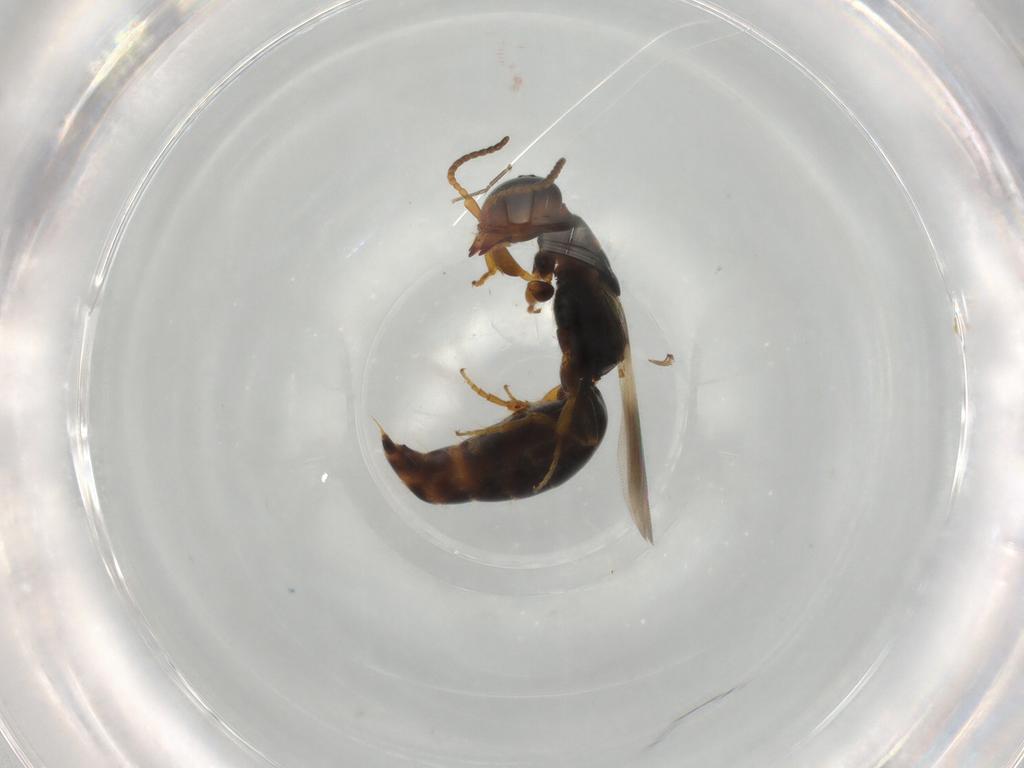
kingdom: Animalia
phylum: Arthropoda
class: Insecta
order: Hymenoptera
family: Bethylidae
